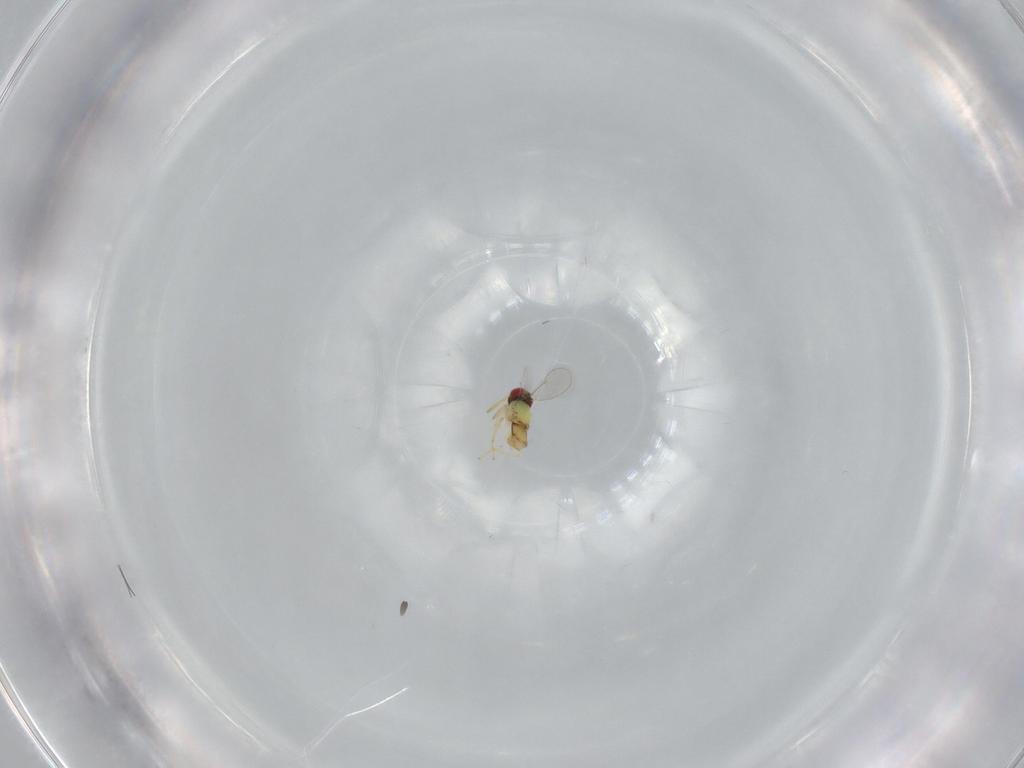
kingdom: Animalia
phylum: Arthropoda
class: Insecta
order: Hymenoptera
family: Aphelinidae
